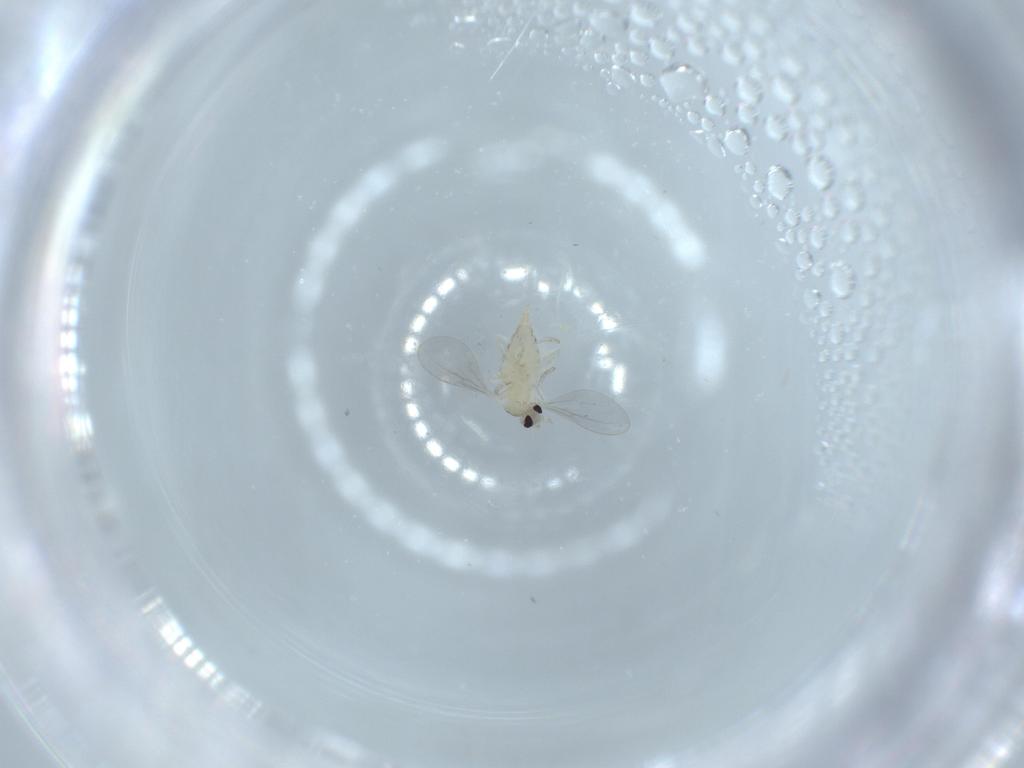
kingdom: Animalia
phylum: Arthropoda
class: Insecta
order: Diptera
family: Cecidomyiidae
